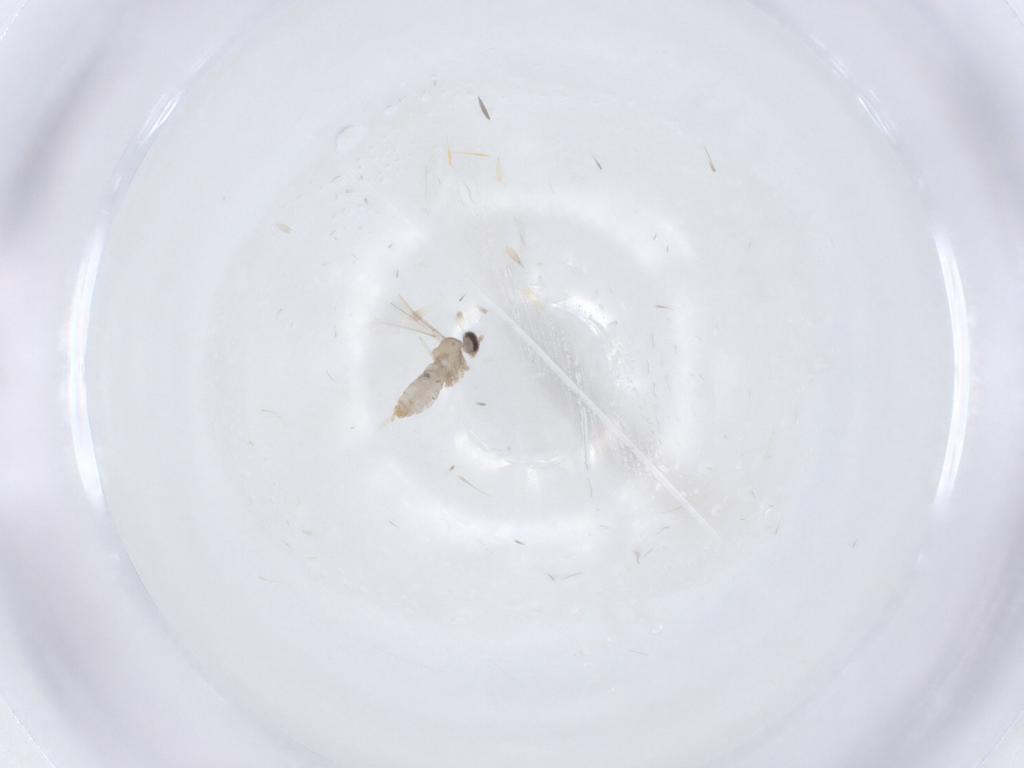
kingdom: Animalia
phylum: Arthropoda
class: Insecta
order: Diptera
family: Cecidomyiidae
